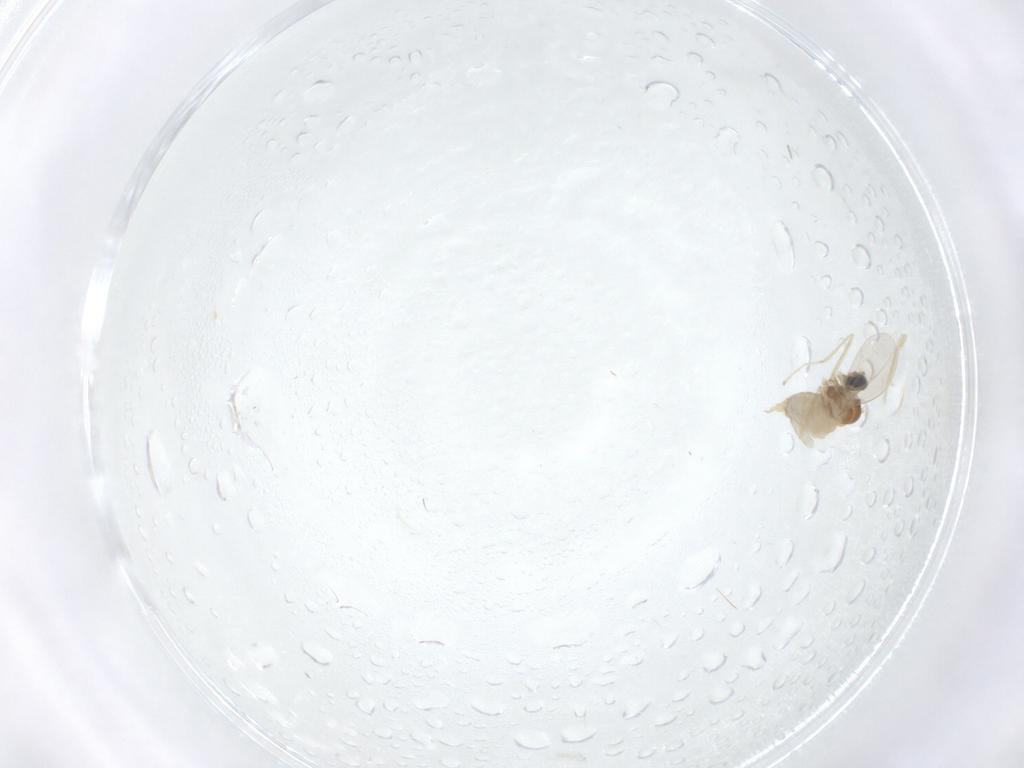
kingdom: Animalia
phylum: Arthropoda
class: Insecta
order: Diptera
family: Cecidomyiidae
